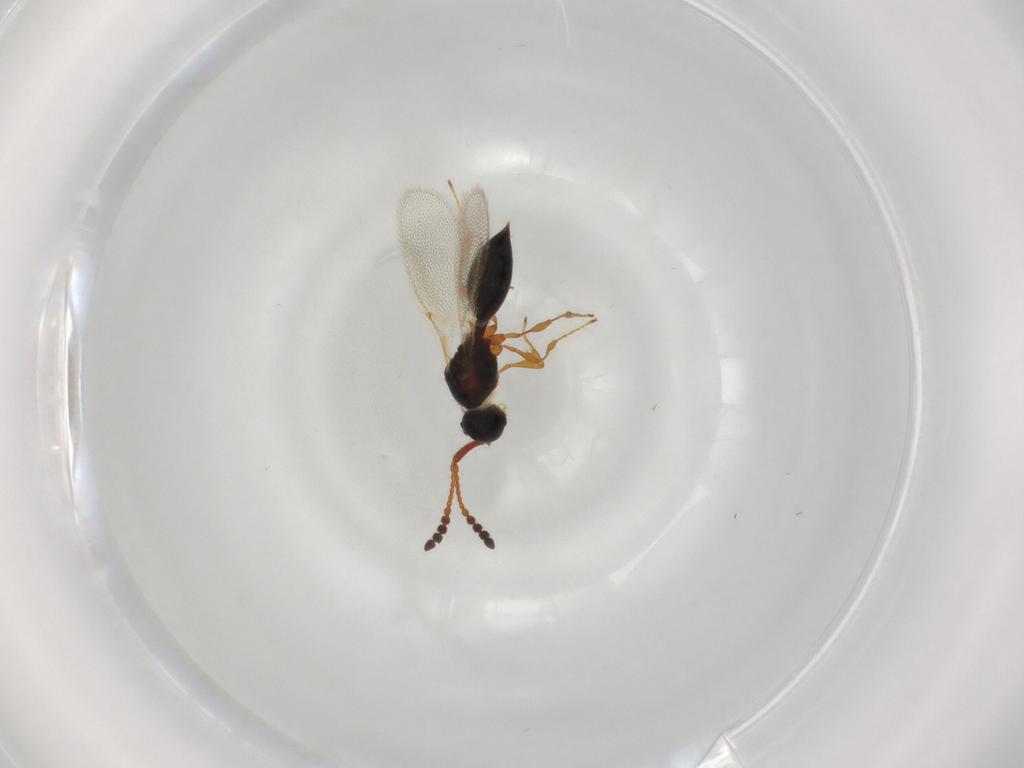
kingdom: Animalia
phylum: Arthropoda
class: Insecta
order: Hymenoptera
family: Diapriidae
